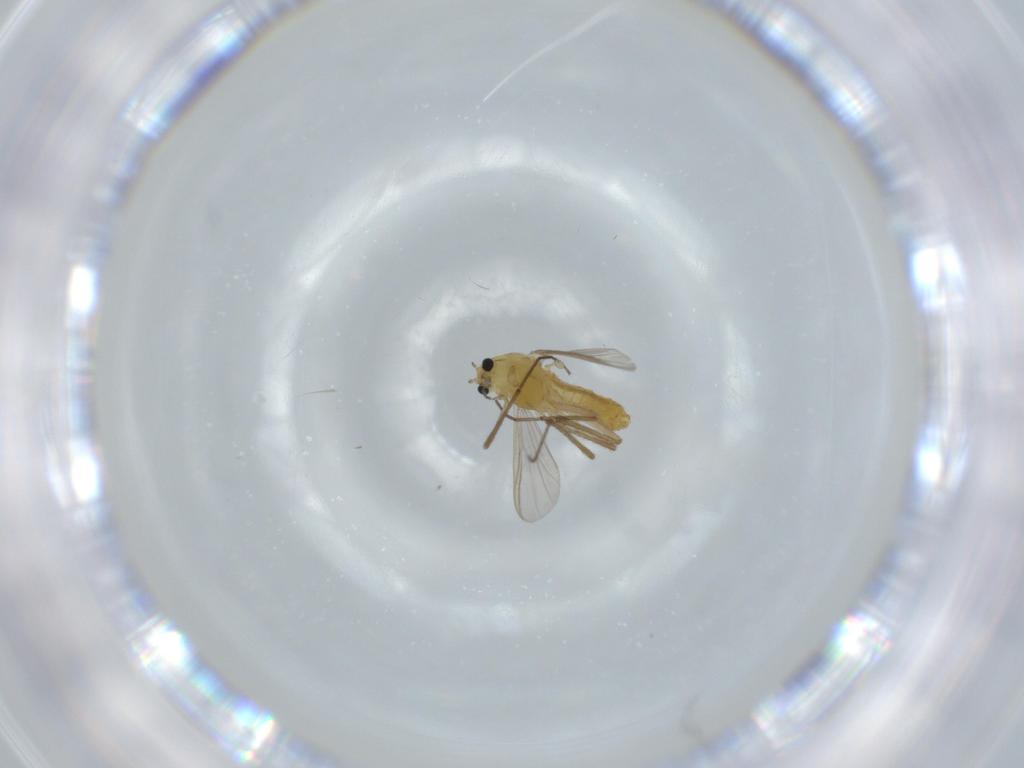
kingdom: Animalia
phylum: Arthropoda
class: Insecta
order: Diptera
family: Chironomidae
